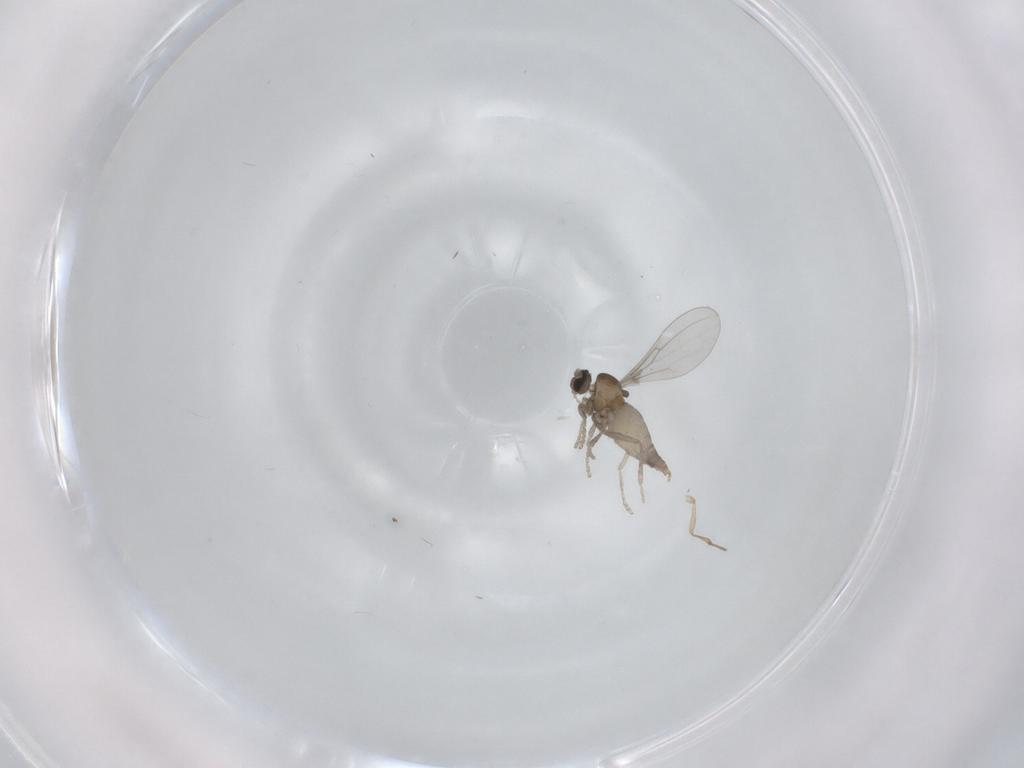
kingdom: Animalia
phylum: Arthropoda
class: Insecta
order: Diptera
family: Cecidomyiidae
